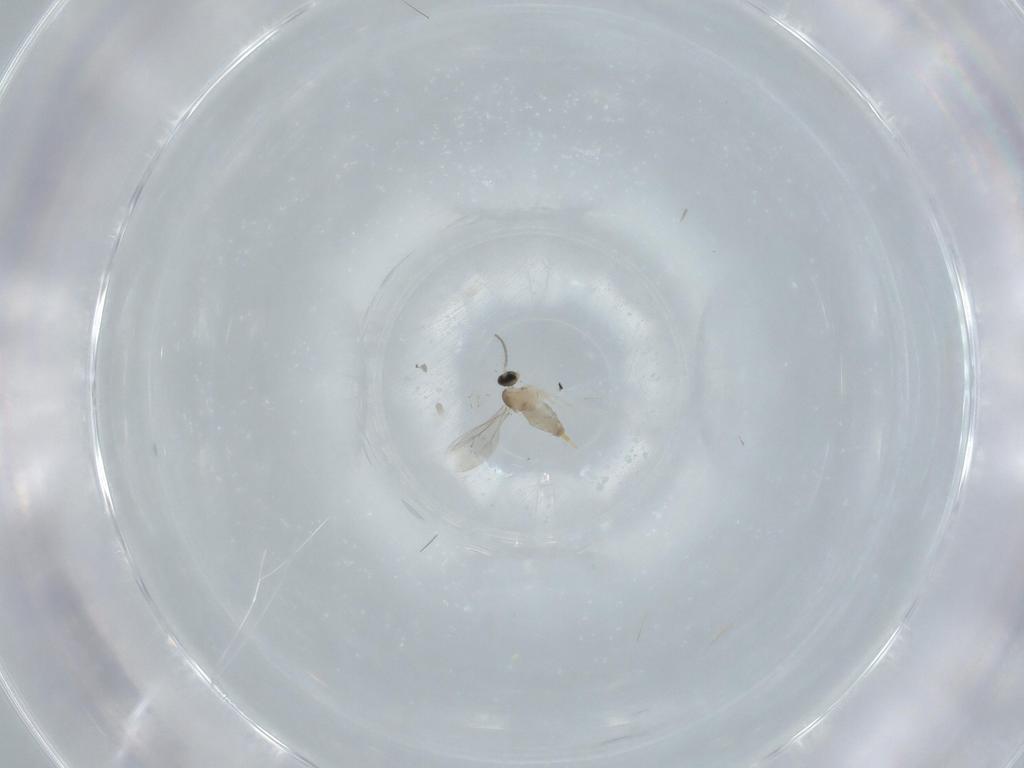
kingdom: Animalia
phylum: Arthropoda
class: Insecta
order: Diptera
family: Cecidomyiidae
